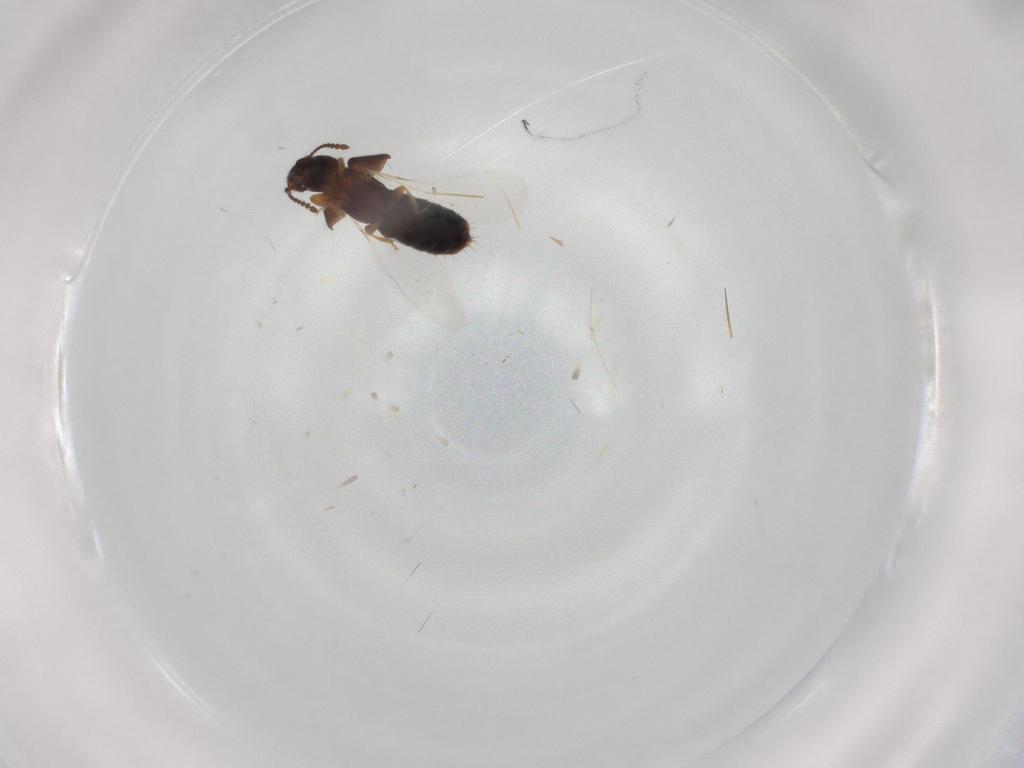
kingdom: Animalia
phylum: Arthropoda
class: Insecta
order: Coleoptera
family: Staphylinidae
